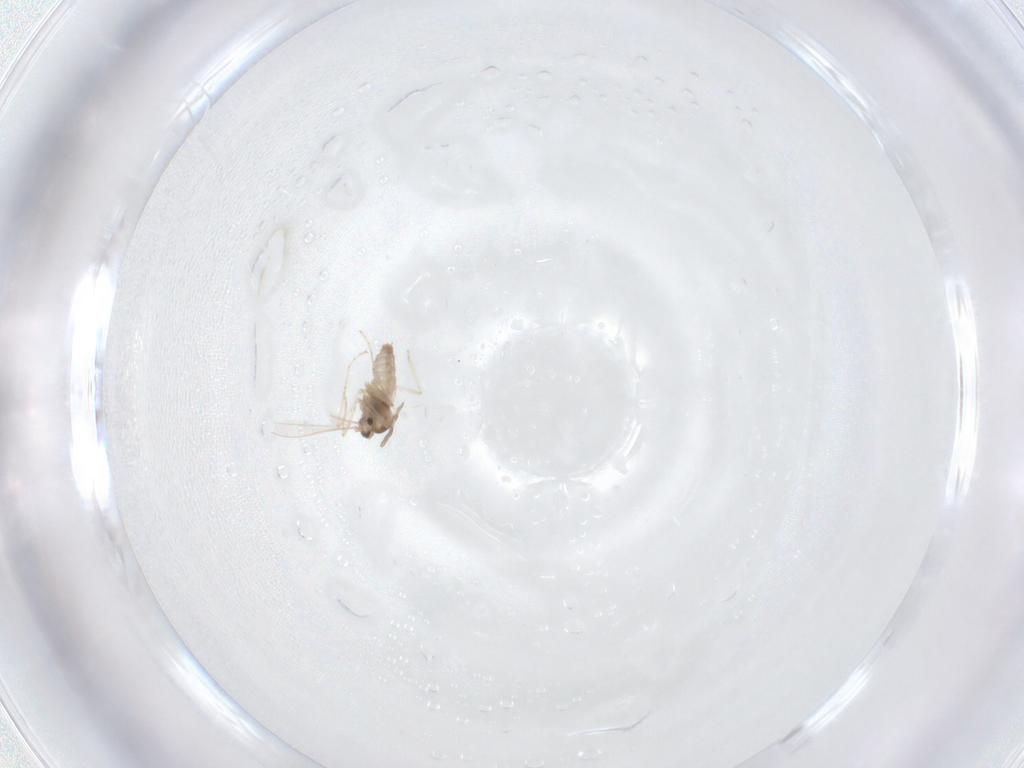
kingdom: Animalia
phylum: Arthropoda
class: Insecta
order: Diptera
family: Cecidomyiidae
